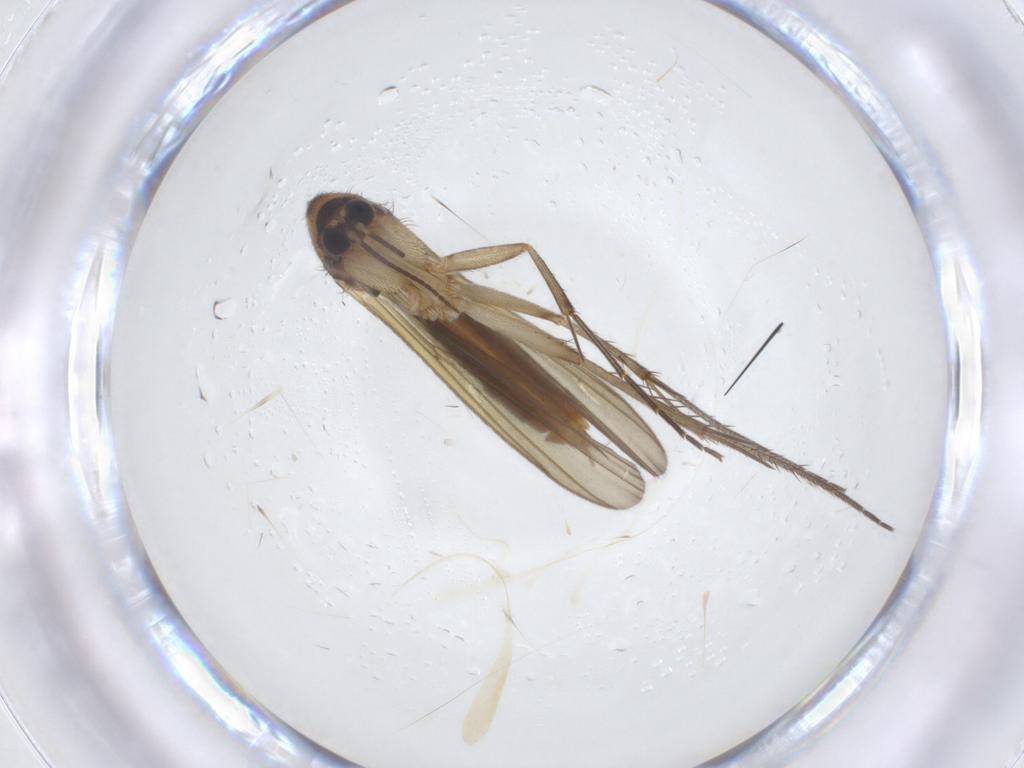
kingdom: Animalia
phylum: Arthropoda
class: Insecta
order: Diptera
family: Mycetophilidae
